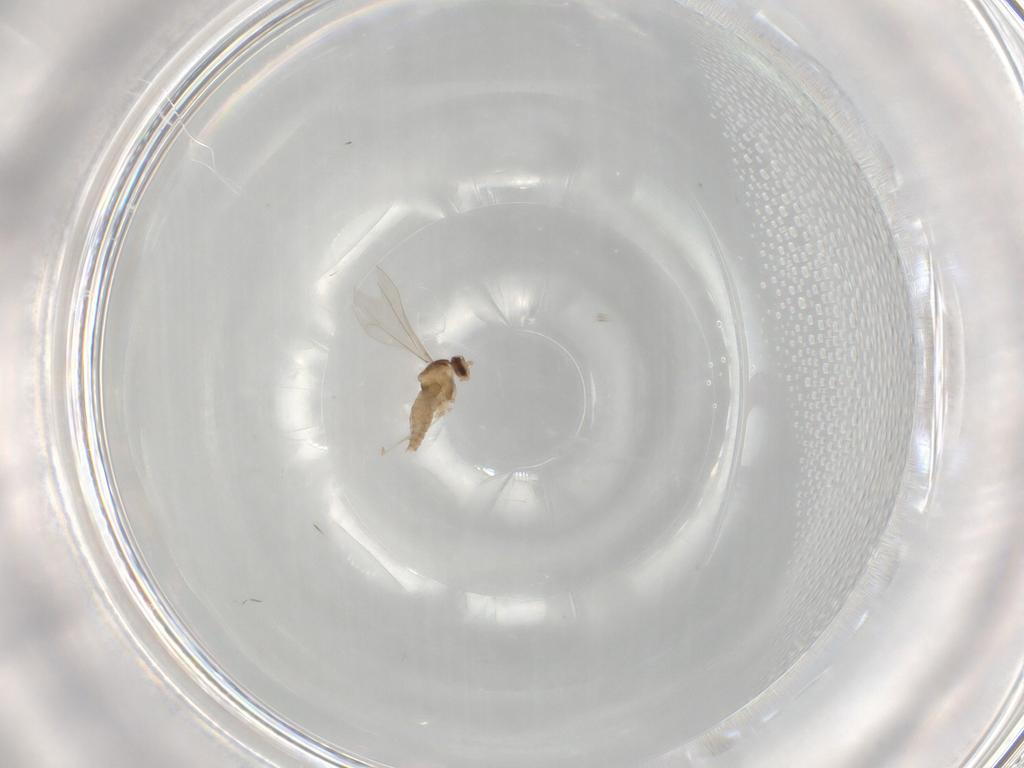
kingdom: Animalia
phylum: Arthropoda
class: Insecta
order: Diptera
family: Cecidomyiidae
